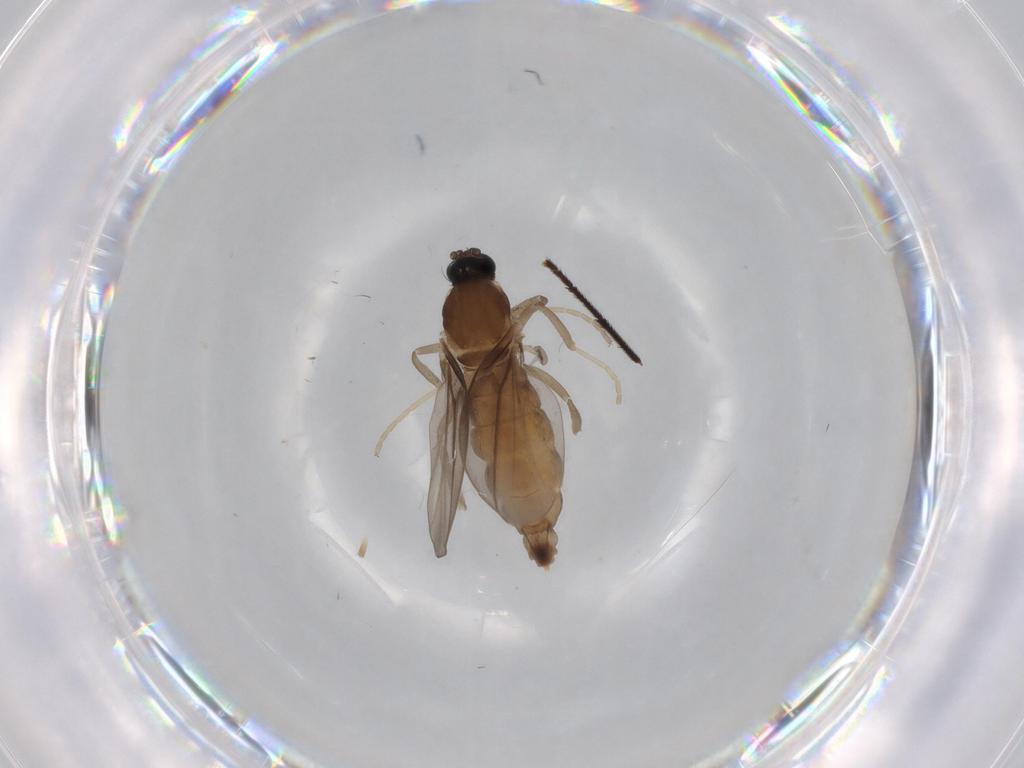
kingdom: Animalia
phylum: Arthropoda
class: Insecta
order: Diptera
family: Cecidomyiidae
